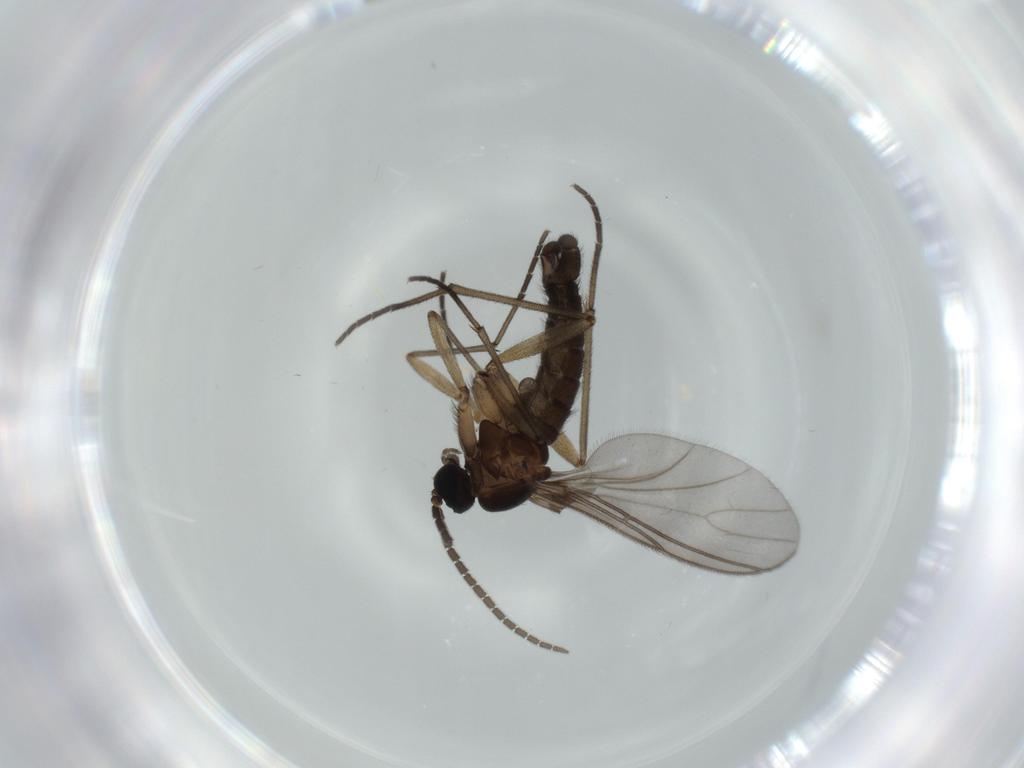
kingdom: Animalia
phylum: Arthropoda
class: Insecta
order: Diptera
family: Sciaridae
